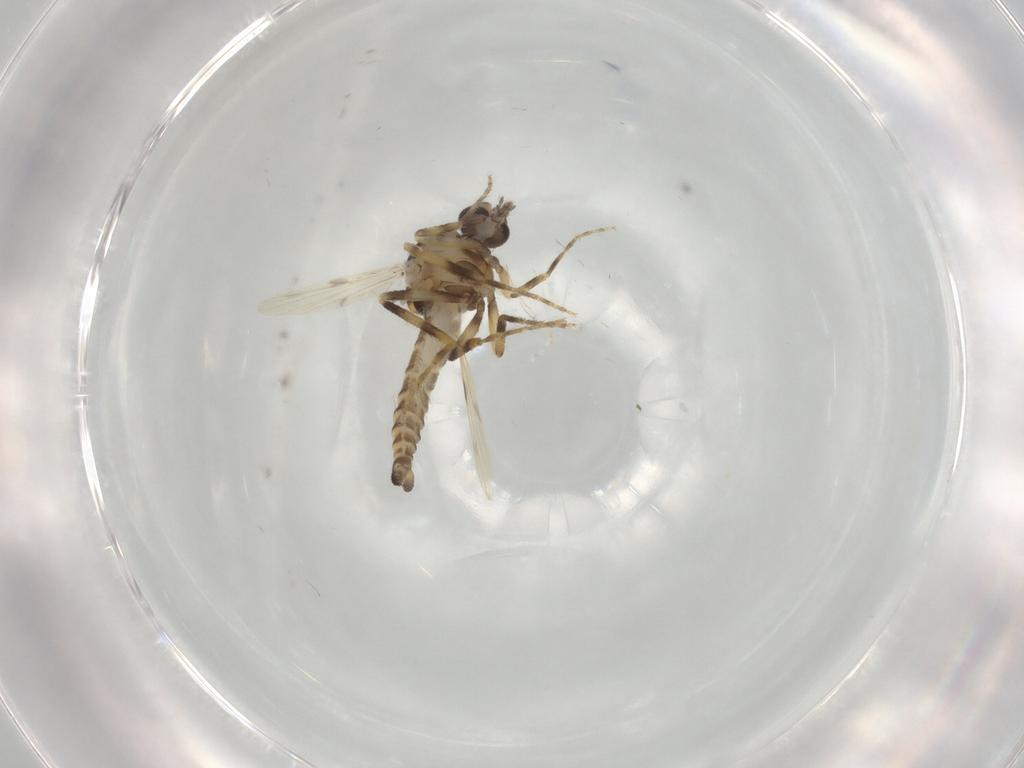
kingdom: Animalia
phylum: Arthropoda
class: Insecta
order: Diptera
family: Ceratopogonidae
